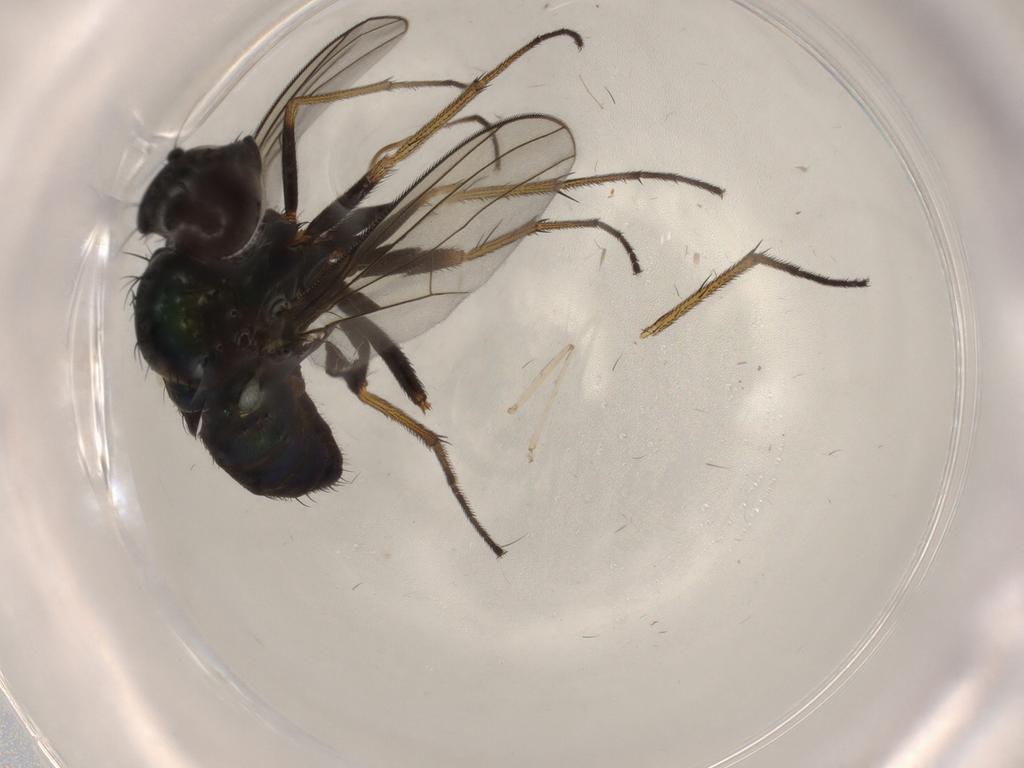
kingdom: Animalia
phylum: Arthropoda
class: Insecta
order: Diptera
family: Dolichopodidae
